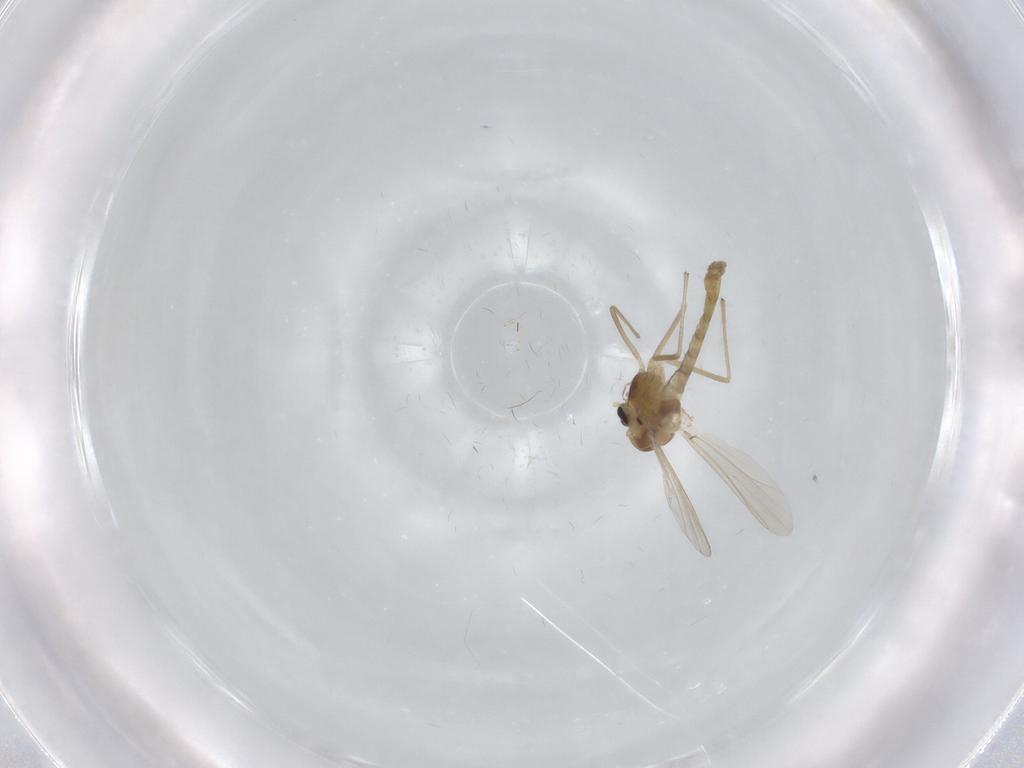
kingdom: Animalia
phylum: Arthropoda
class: Insecta
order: Diptera
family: Chironomidae
